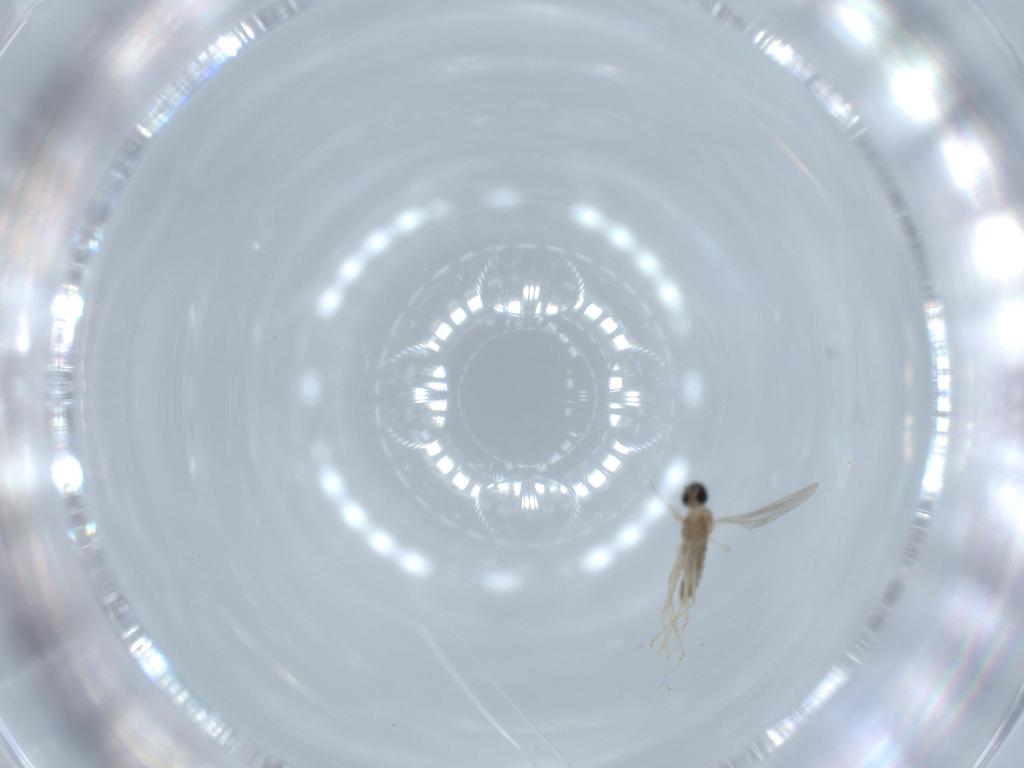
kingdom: Animalia
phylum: Arthropoda
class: Insecta
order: Diptera
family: Cecidomyiidae
